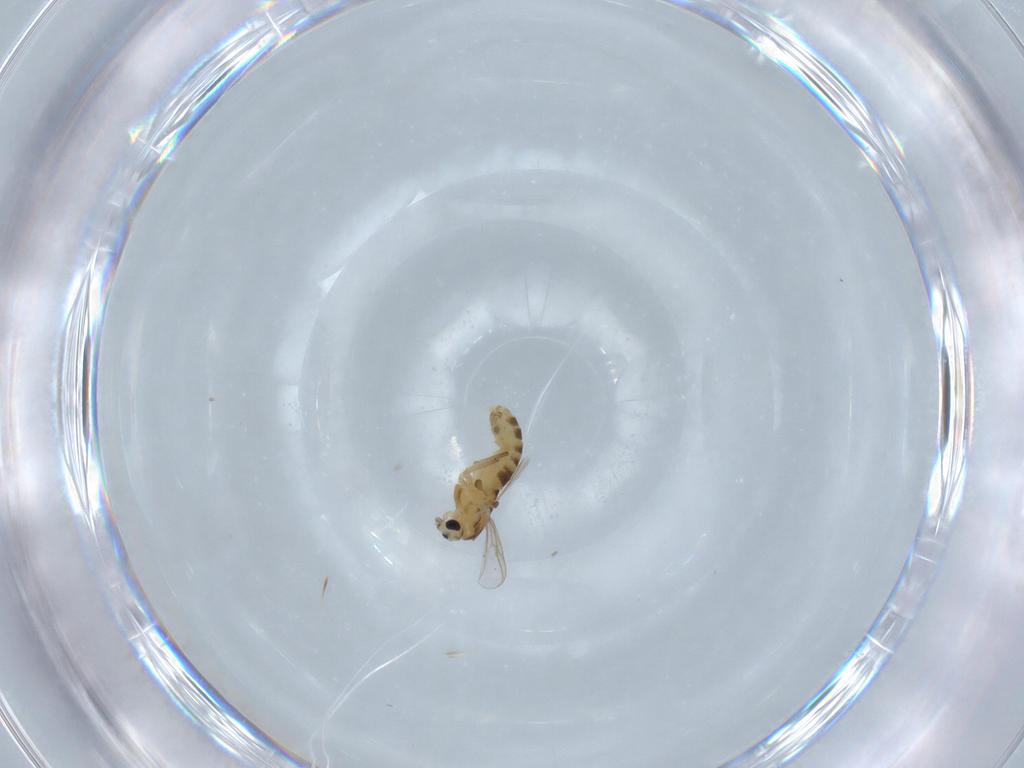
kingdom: Animalia
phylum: Arthropoda
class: Insecta
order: Diptera
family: Chironomidae
